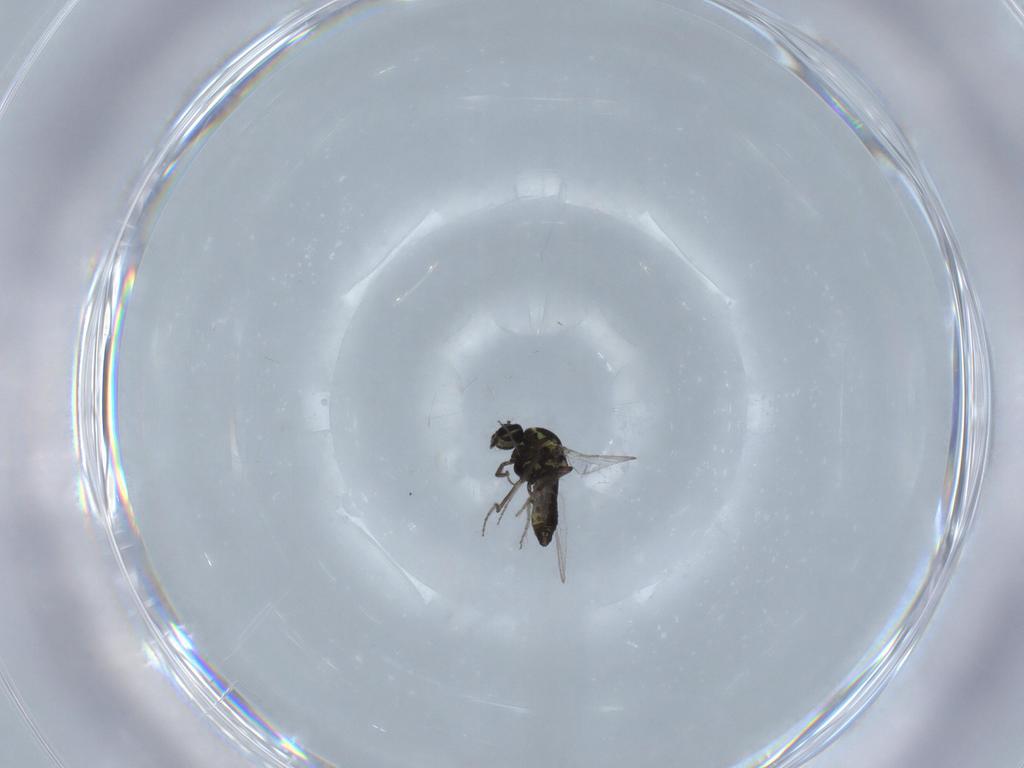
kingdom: Animalia
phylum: Arthropoda
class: Insecta
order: Diptera
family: Ceratopogonidae
